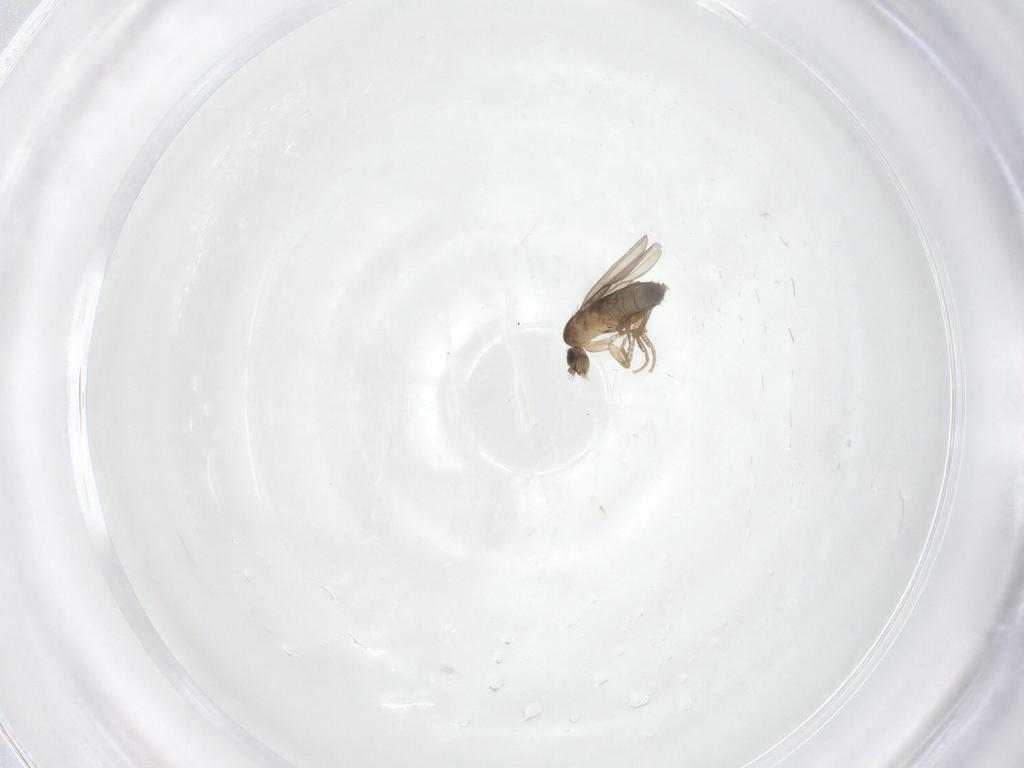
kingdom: Animalia
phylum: Arthropoda
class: Insecta
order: Diptera
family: Phoridae
